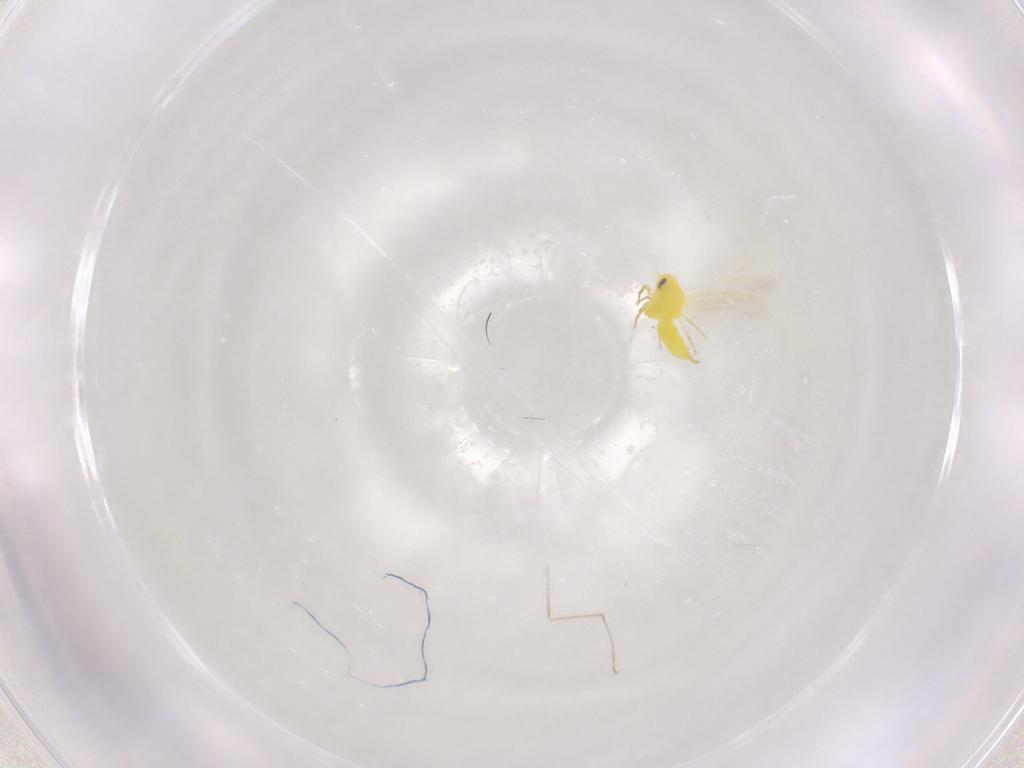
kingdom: Animalia
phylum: Arthropoda
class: Insecta
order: Hemiptera
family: Aleyrodidae
